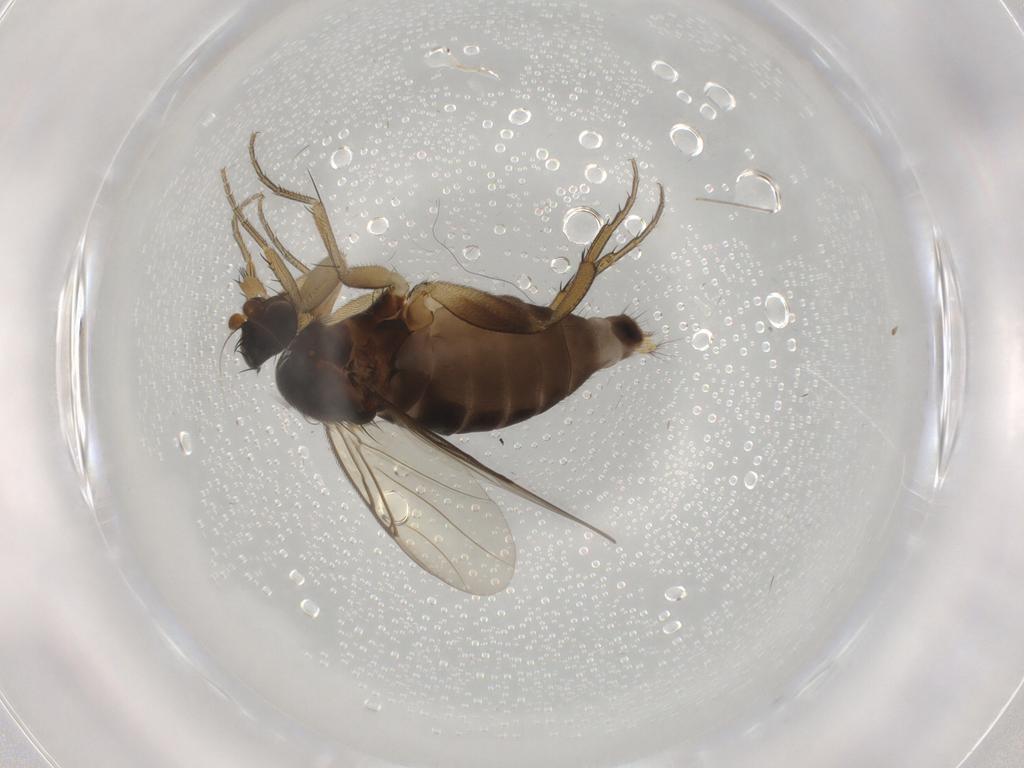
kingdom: Animalia
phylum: Arthropoda
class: Insecta
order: Diptera
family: Phoridae
